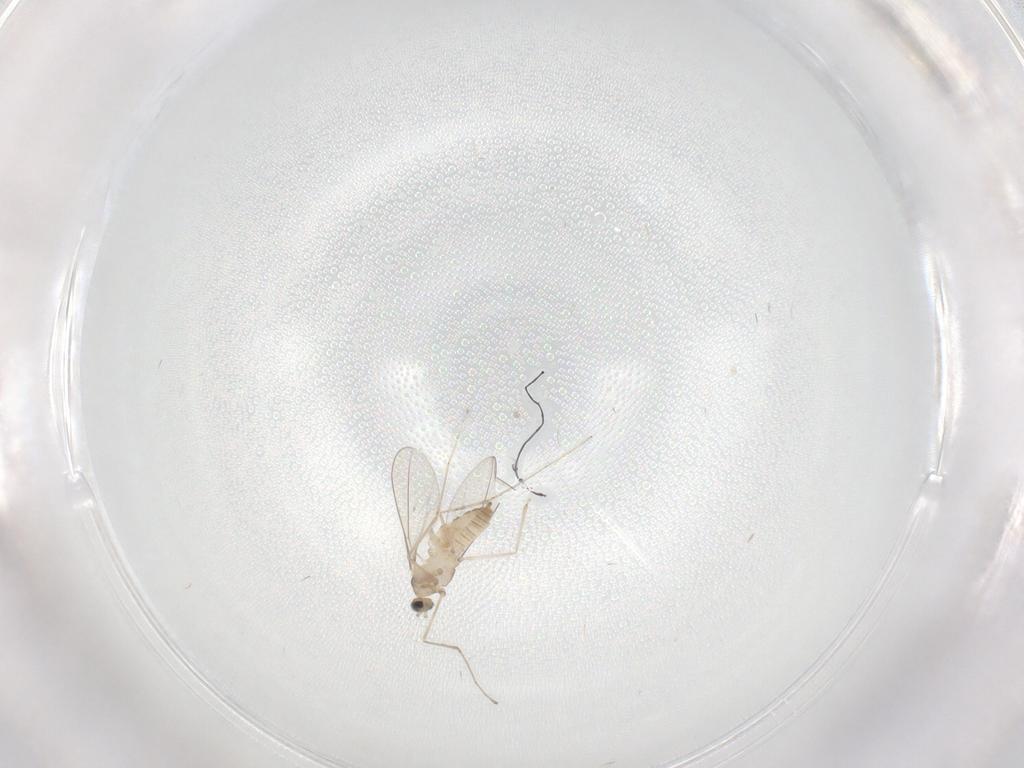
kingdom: Animalia
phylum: Arthropoda
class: Insecta
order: Diptera
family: Cecidomyiidae
